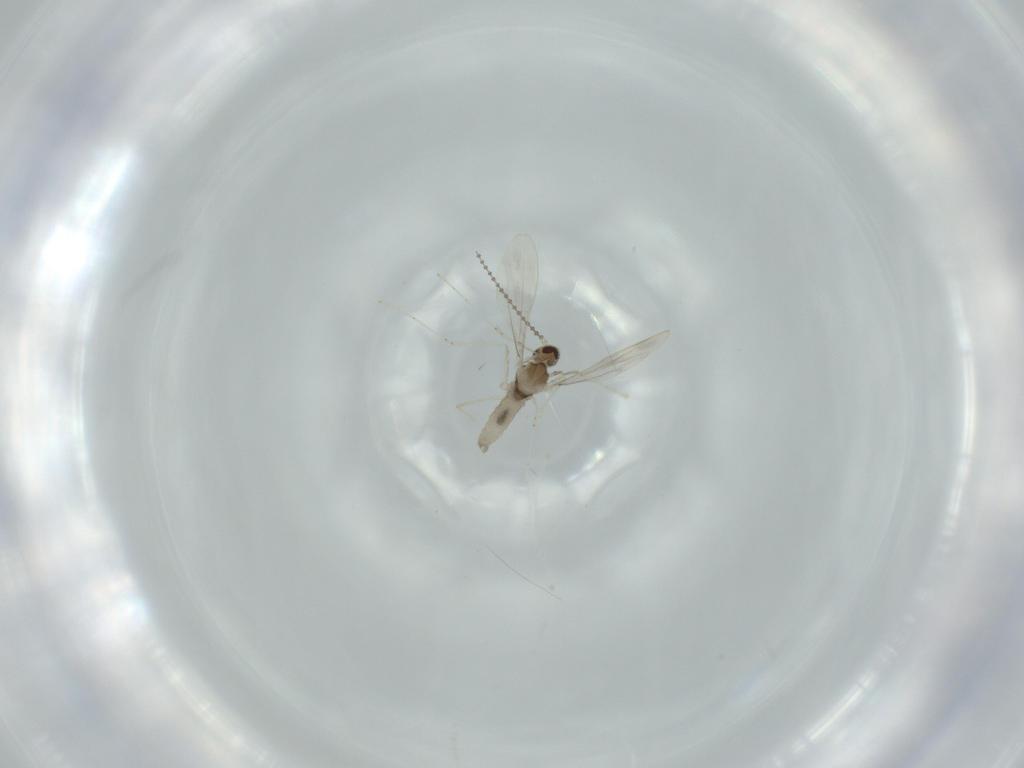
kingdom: Animalia
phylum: Arthropoda
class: Insecta
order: Diptera
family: Cecidomyiidae
